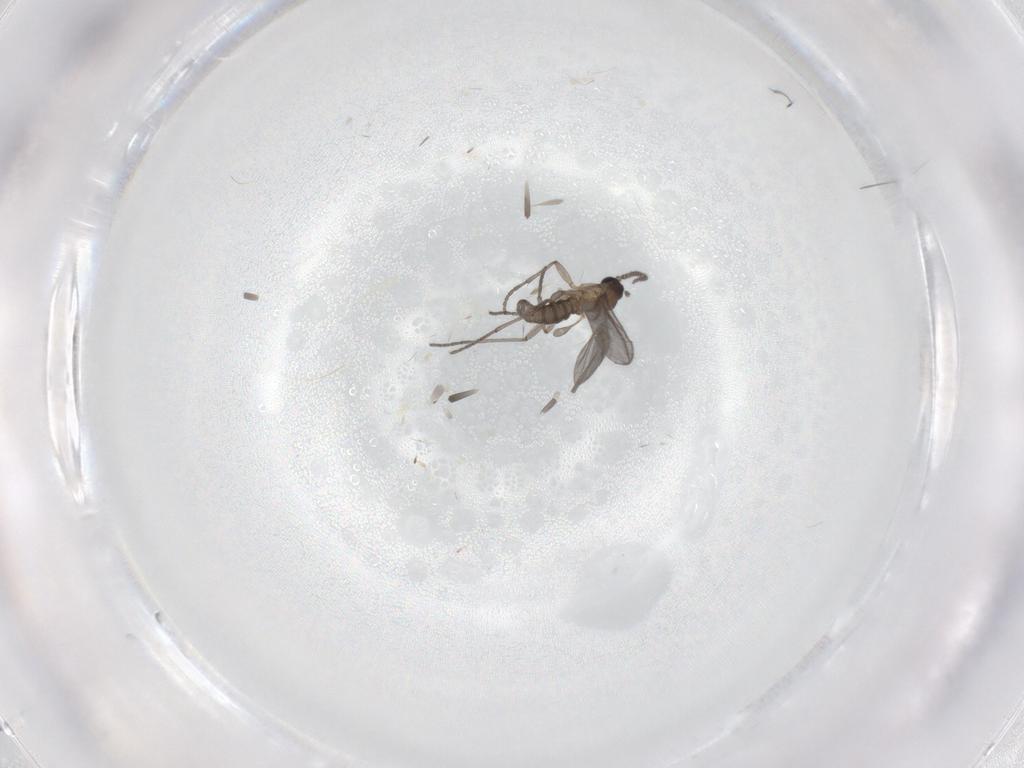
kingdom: Animalia
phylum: Arthropoda
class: Insecta
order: Diptera
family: Sciaridae
